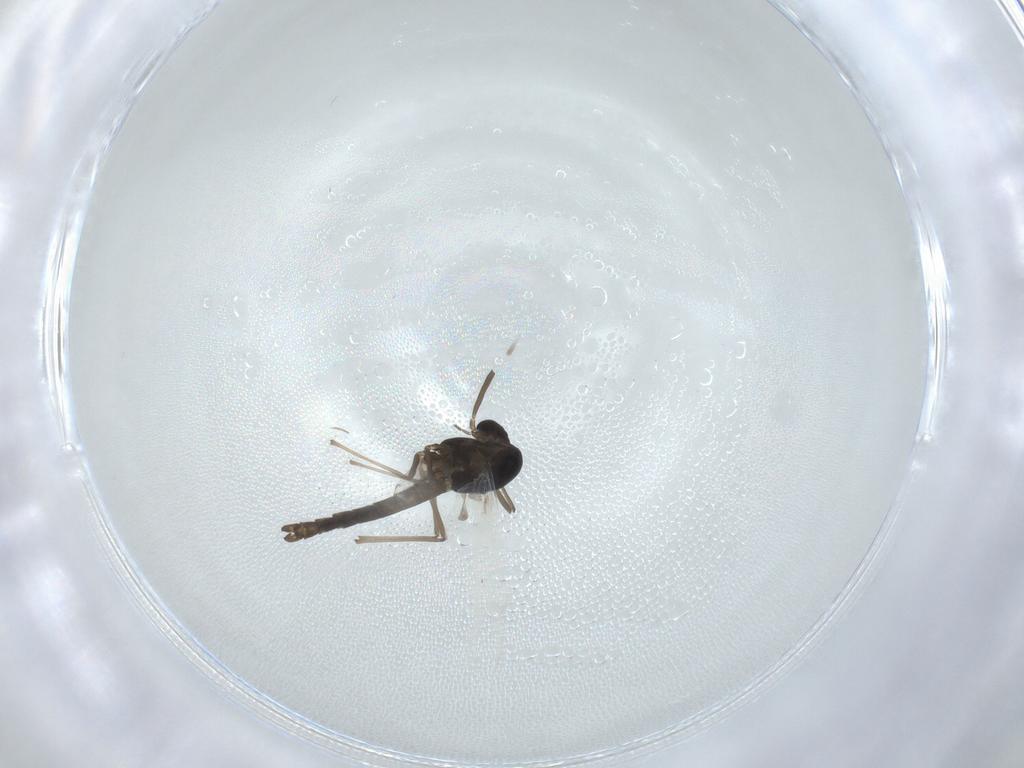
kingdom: Animalia
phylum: Arthropoda
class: Insecta
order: Diptera
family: Chironomidae
